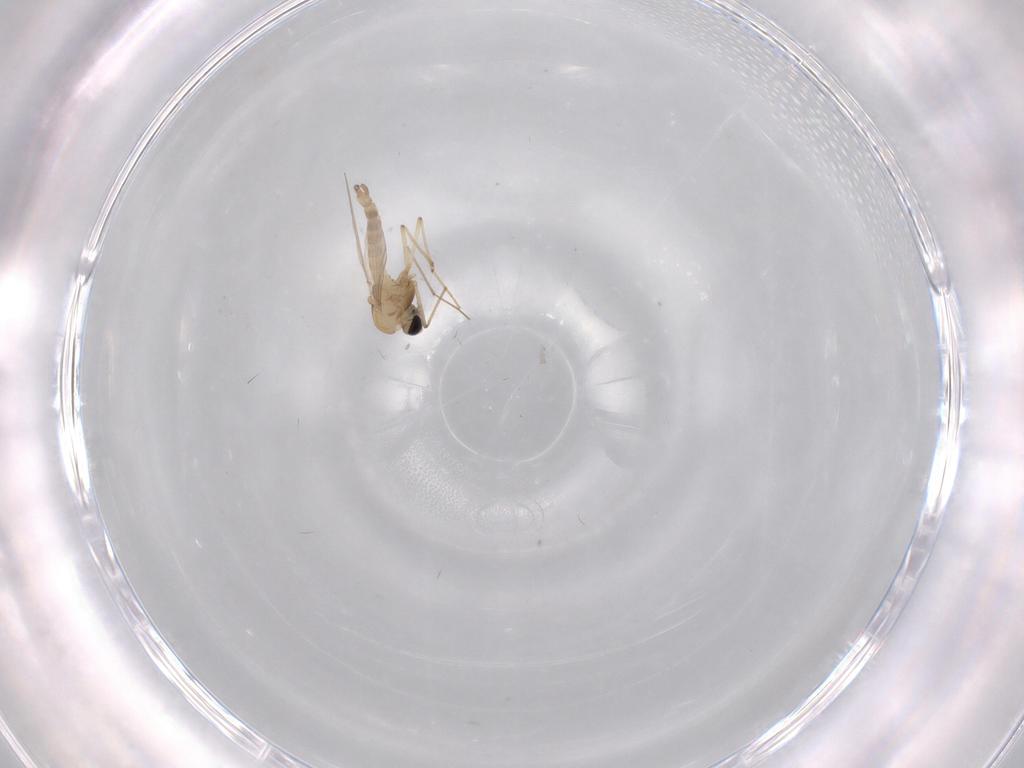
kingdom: Animalia
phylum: Arthropoda
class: Insecta
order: Diptera
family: Chironomidae
